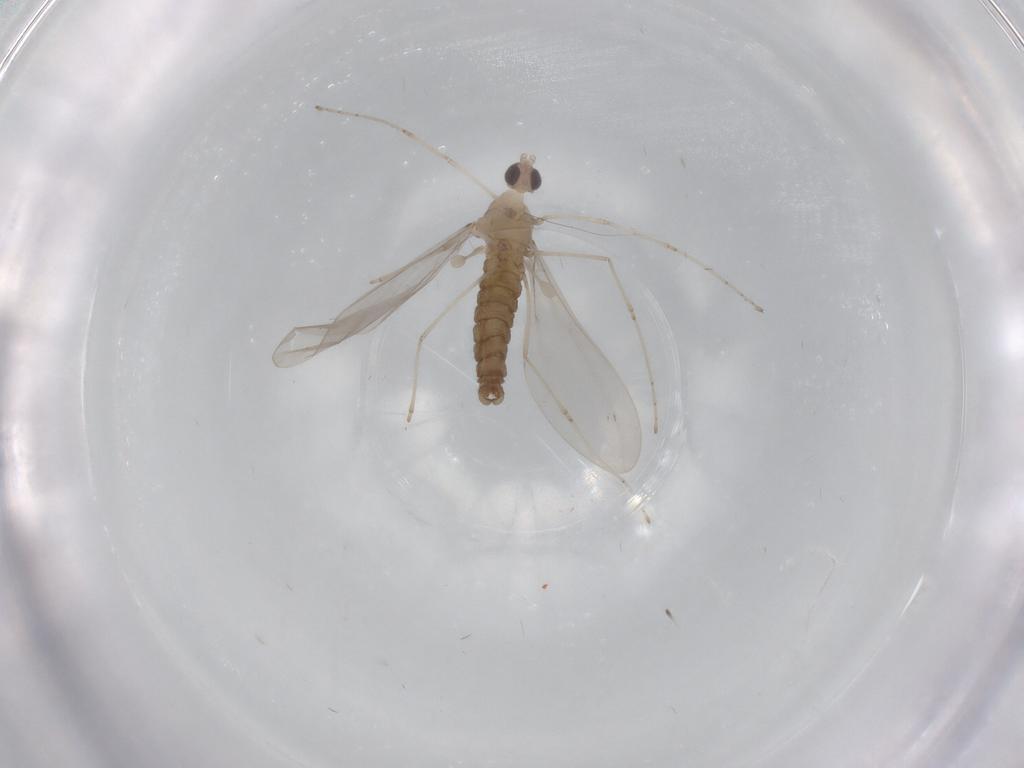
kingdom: Animalia
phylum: Arthropoda
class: Insecta
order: Diptera
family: Cecidomyiidae
